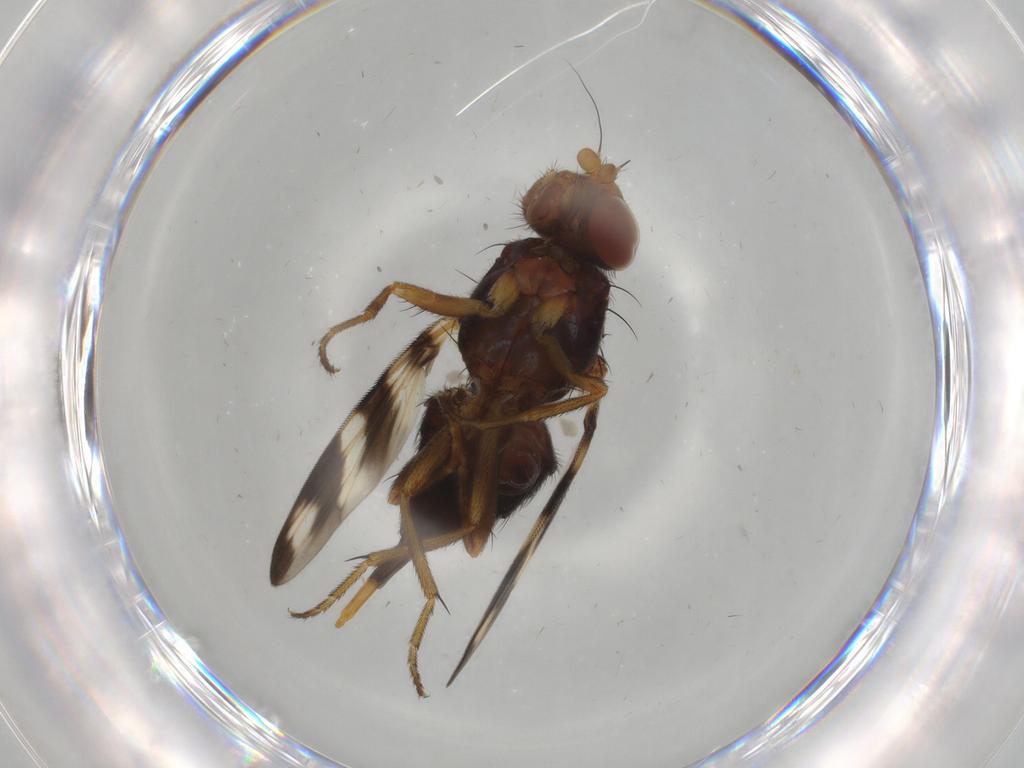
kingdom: Animalia
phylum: Arthropoda
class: Insecta
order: Diptera
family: Ulidiidae
